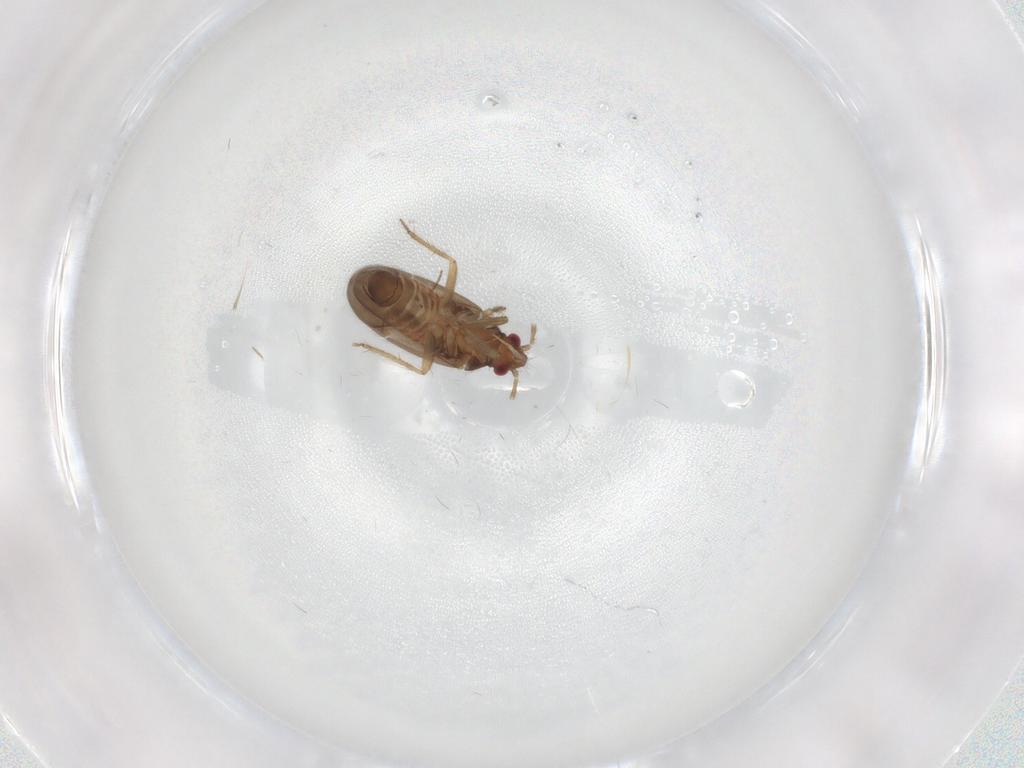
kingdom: Animalia
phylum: Arthropoda
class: Insecta
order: Hemiptera
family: Ceratocombidae
